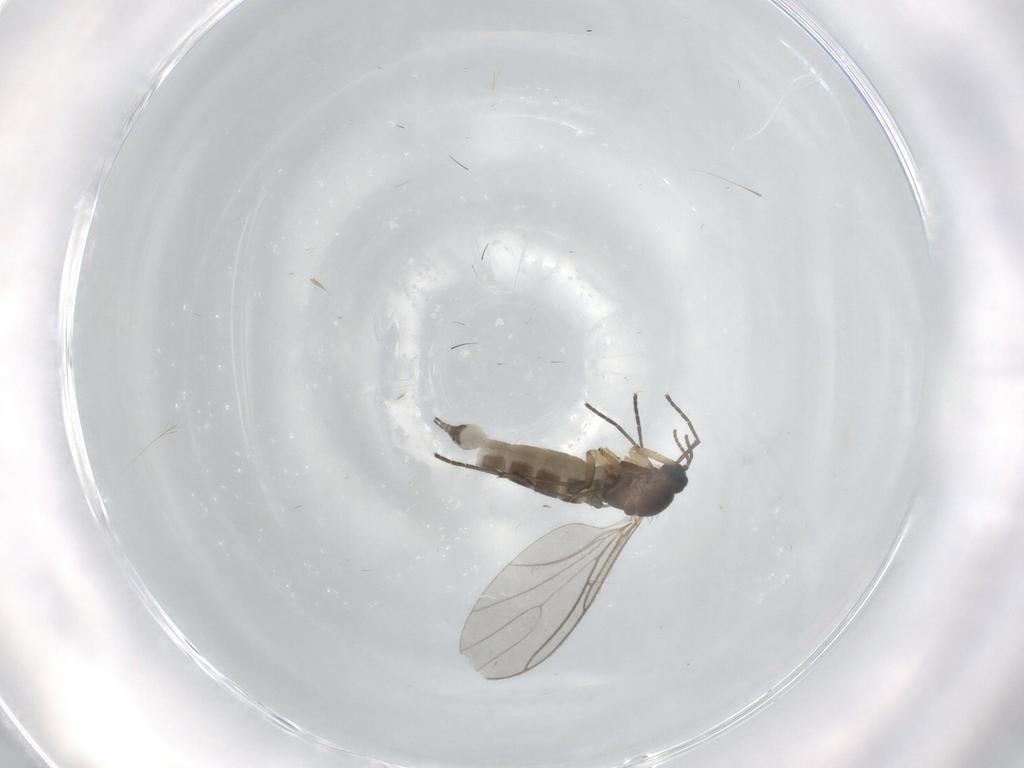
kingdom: Animalia
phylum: Arthropoda
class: Insecta
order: Diptera
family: Sciaridae
